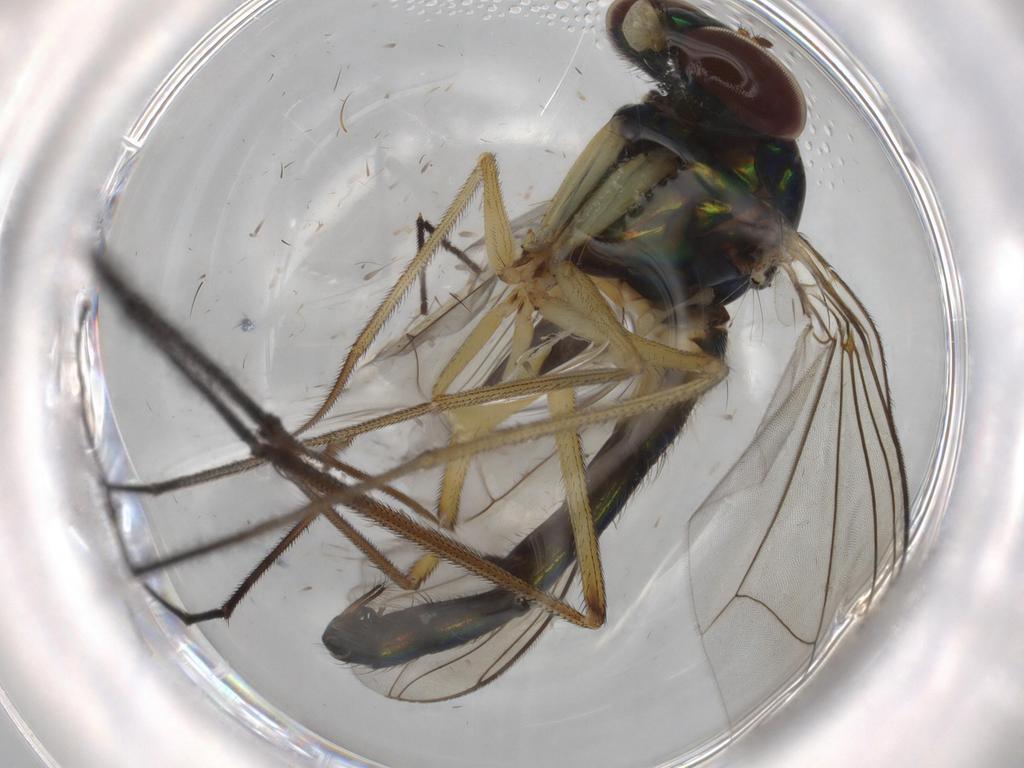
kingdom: Animalia
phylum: Arthropoda
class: Insecta
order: Diptera
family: Dolichopodidae
